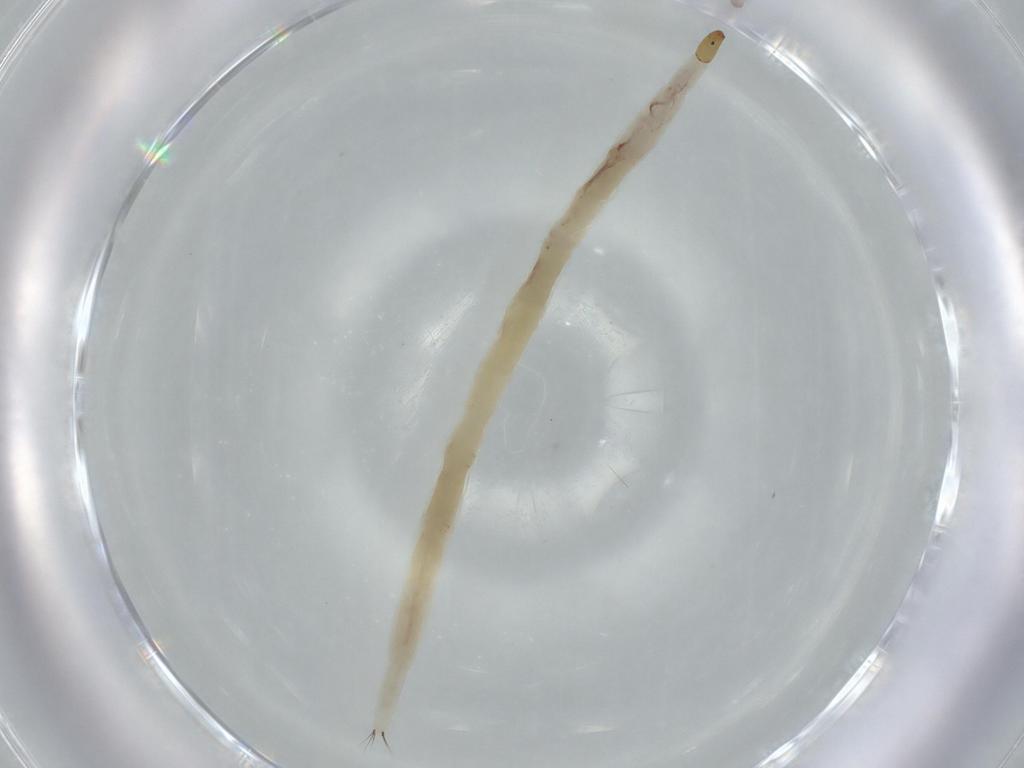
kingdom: Animalia
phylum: Arthropoda
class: Insecta
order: Diptera
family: Ceratopogonidae
